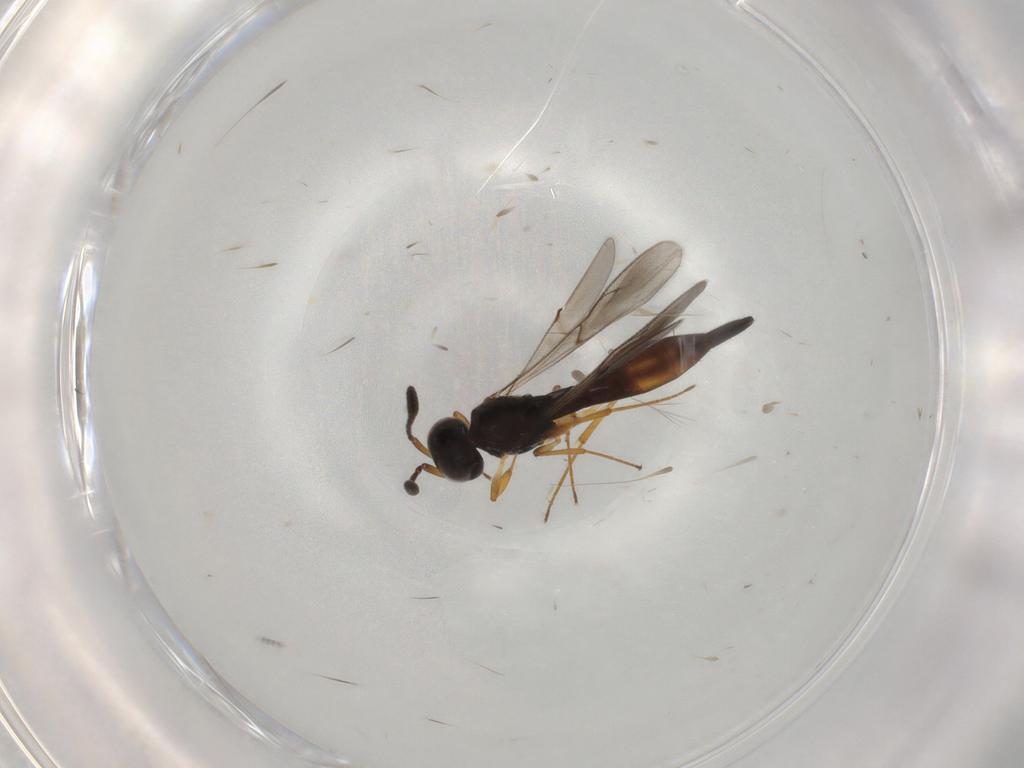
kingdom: Animalia
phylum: Arthropoda
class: Insecta
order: Hymenoptera
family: Formicidae
